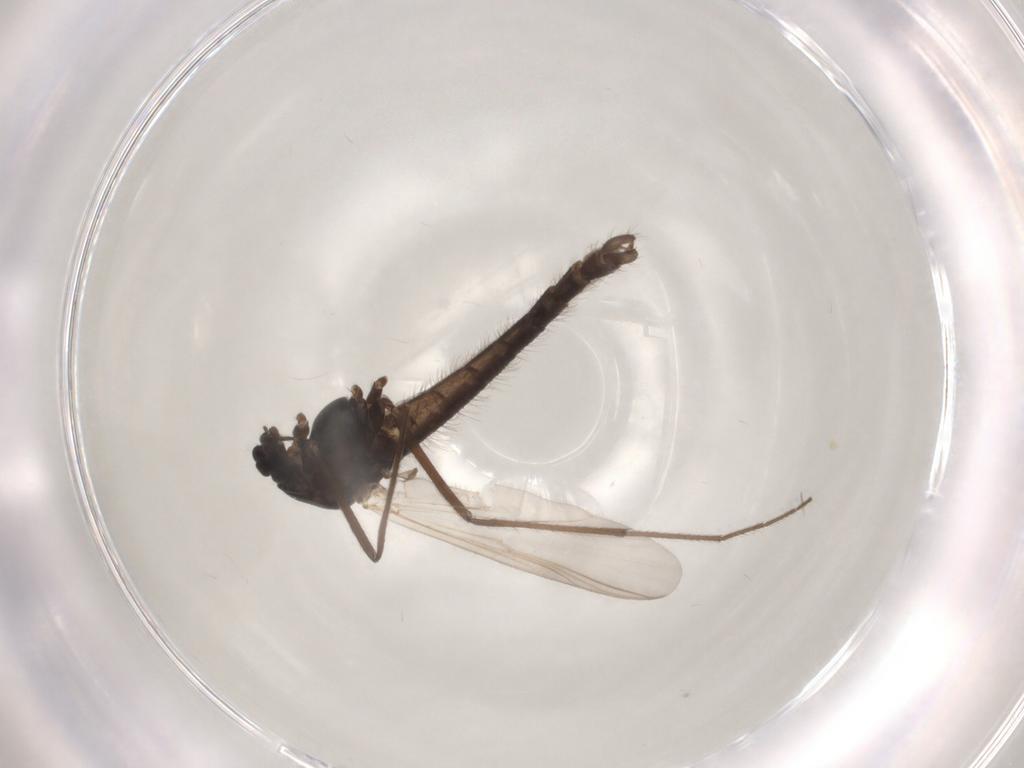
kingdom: Animalia
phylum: Arthropoda
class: Insecta
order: Diptera
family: Chironomidae
